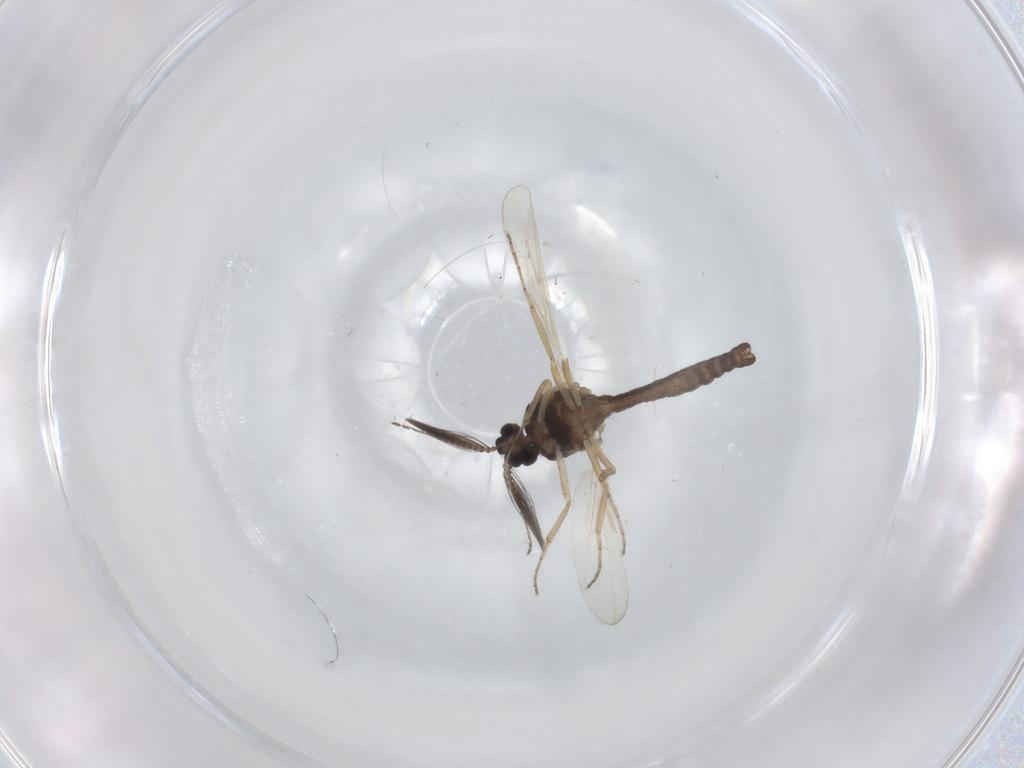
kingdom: Animalia
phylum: Arthropoda
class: Insecta
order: Diptera
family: Ceratopogonidae
